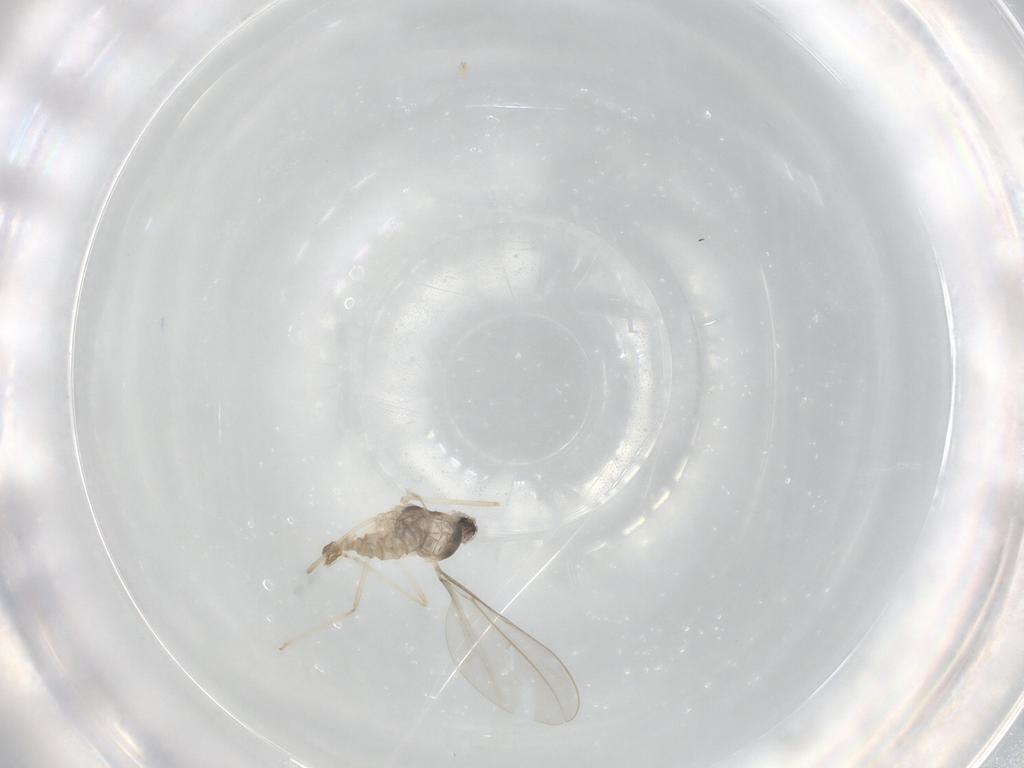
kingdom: Animalia
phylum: Arthropoda
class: Insecta
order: Diptera
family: Cecidomyiidae
